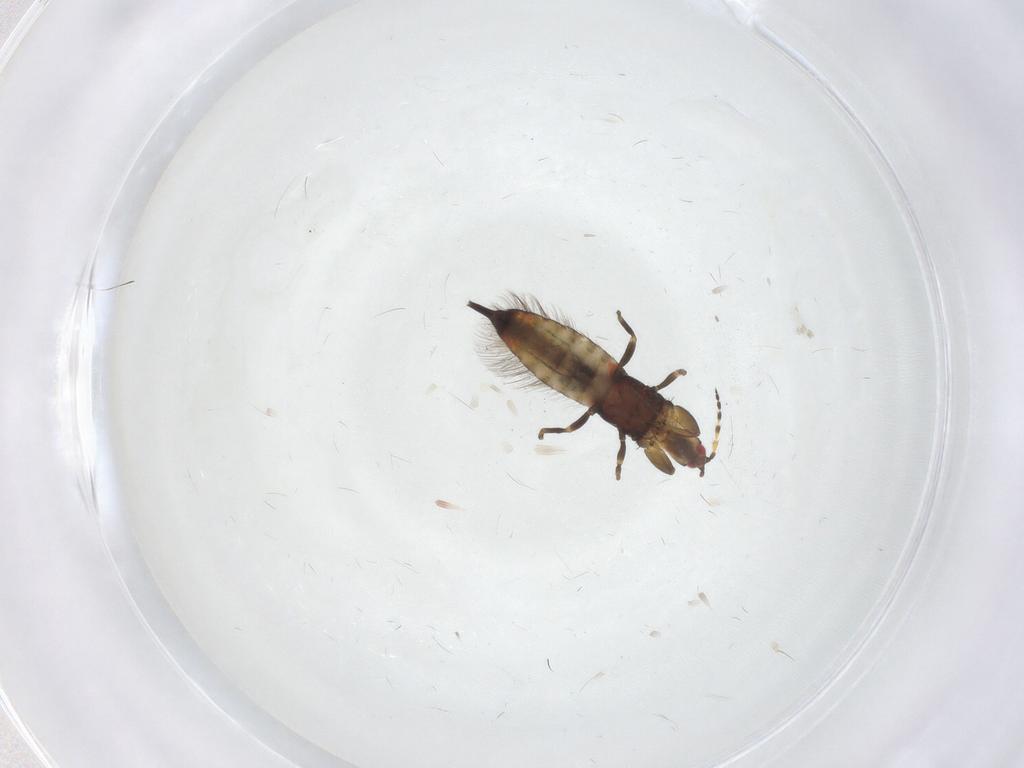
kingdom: Animalia
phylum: Arthropoda
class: Insecta
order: Thysanoptera
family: Phlaeothripidae
